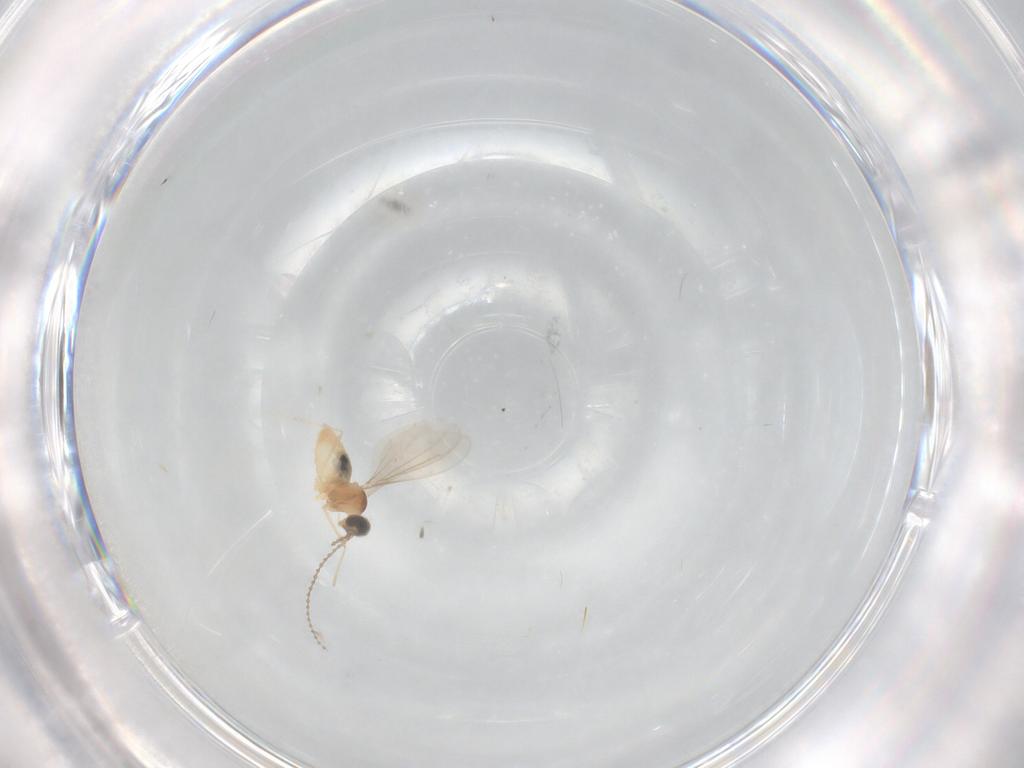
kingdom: Animalia
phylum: Arthropoda
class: Insecta
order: Diptera
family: Cecidomyiidae
